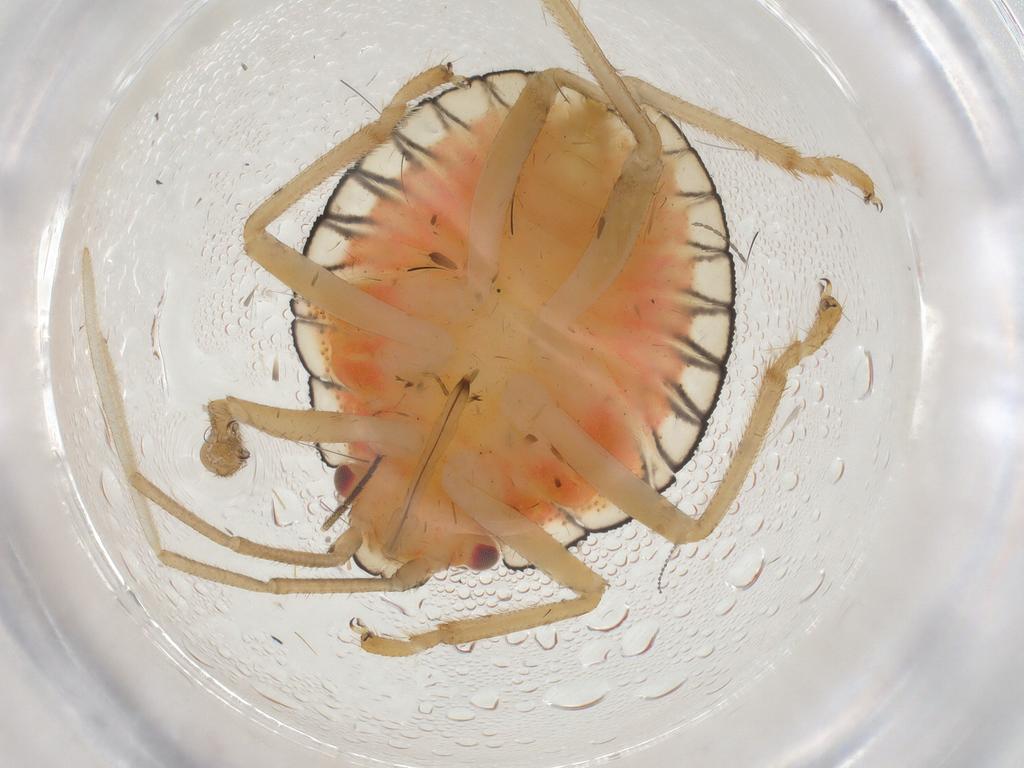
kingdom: Animalia
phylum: Arthropoda
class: Insecta
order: Hemiptera
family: Pentatomidae
